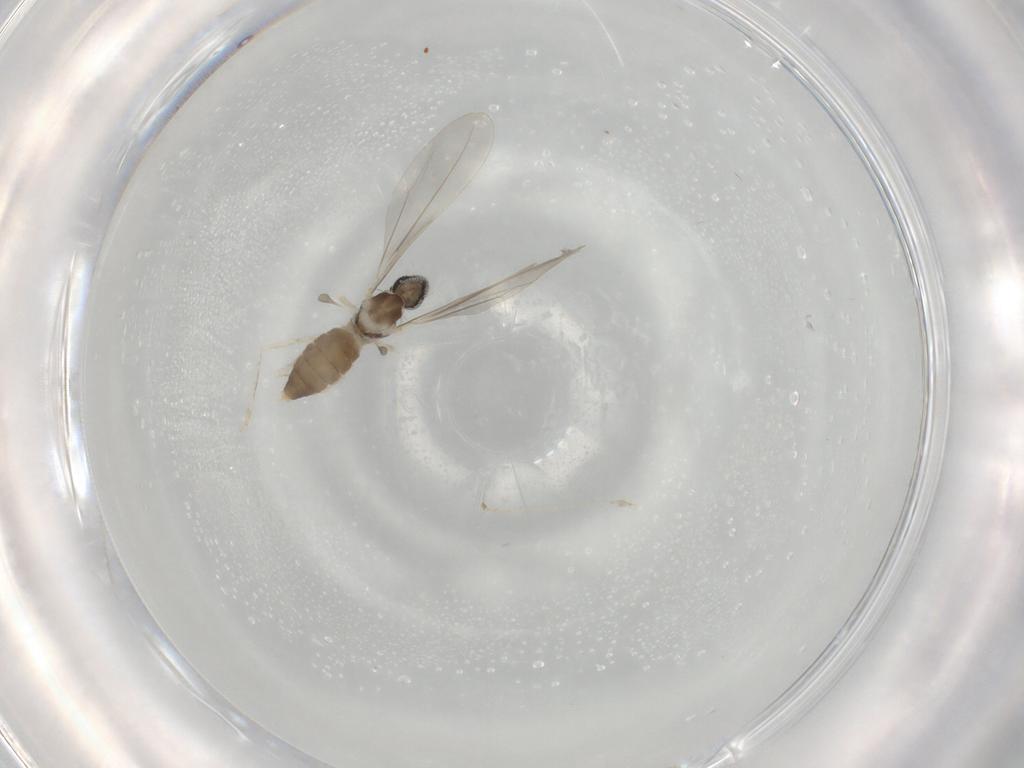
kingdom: Animalia
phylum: Arthropoda
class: Insecta
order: Diptera
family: Cecidomyiidae
